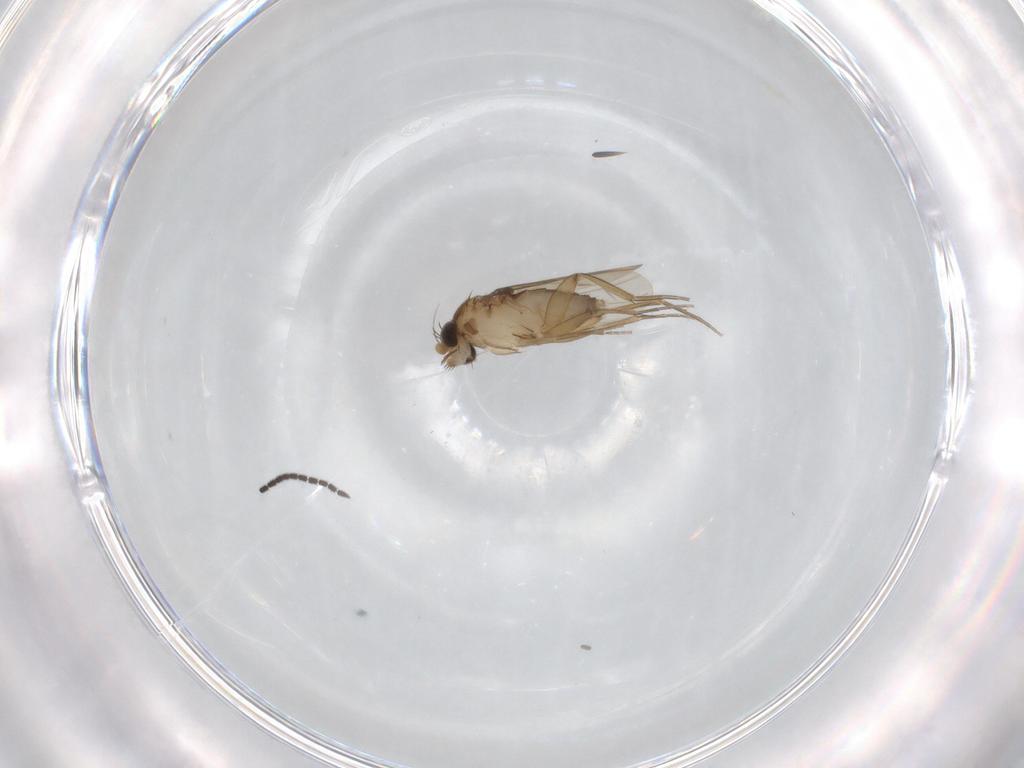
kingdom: Animalia
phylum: Arthropoda
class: Insecta
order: Diptera
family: Sciaridae
